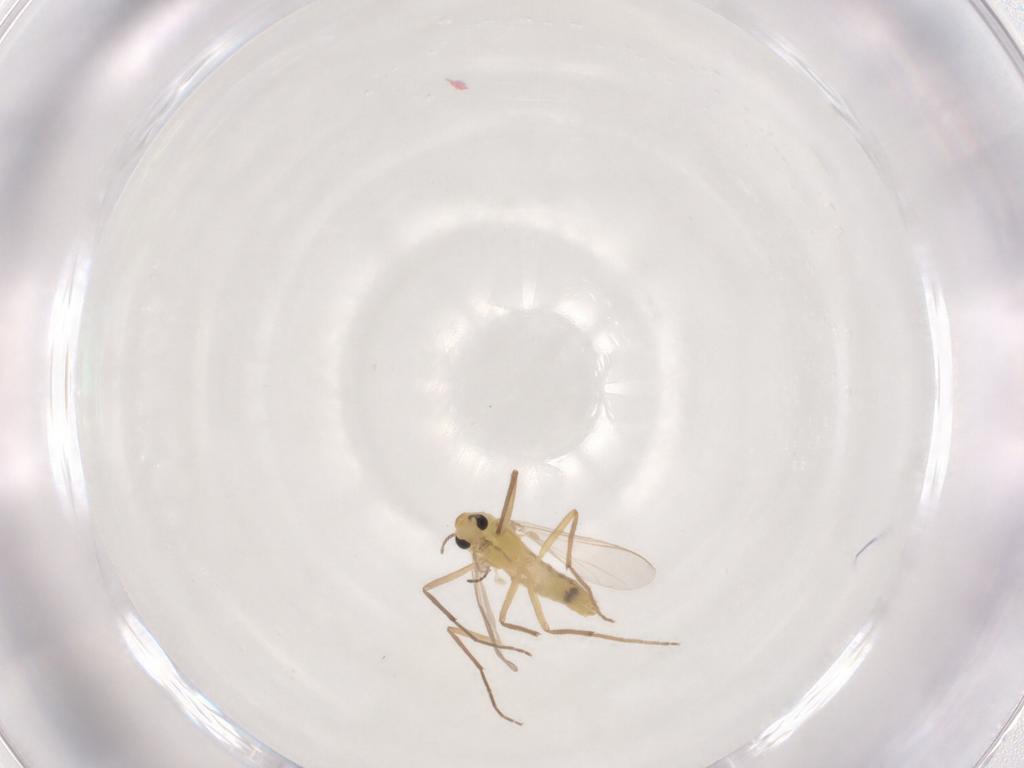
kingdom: Animalia
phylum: Arthropoda
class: Insecta
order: Diptera
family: Chironomidae
